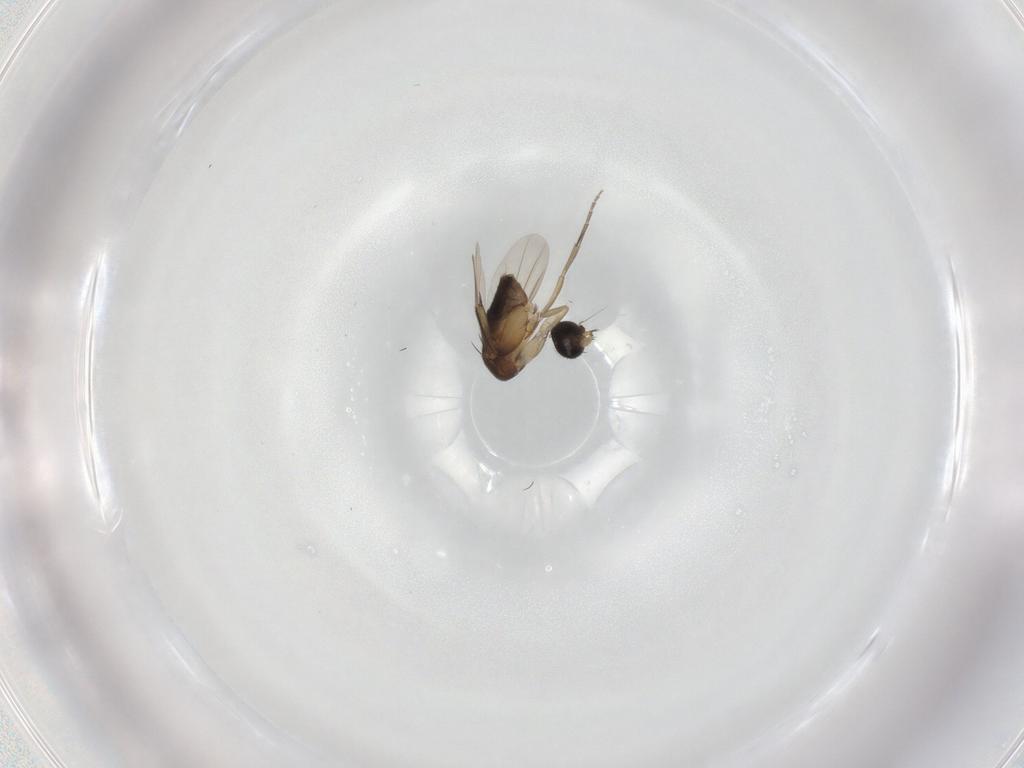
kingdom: Animalia
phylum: Arthropoda
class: Insecta
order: Diptera
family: Phoridae
